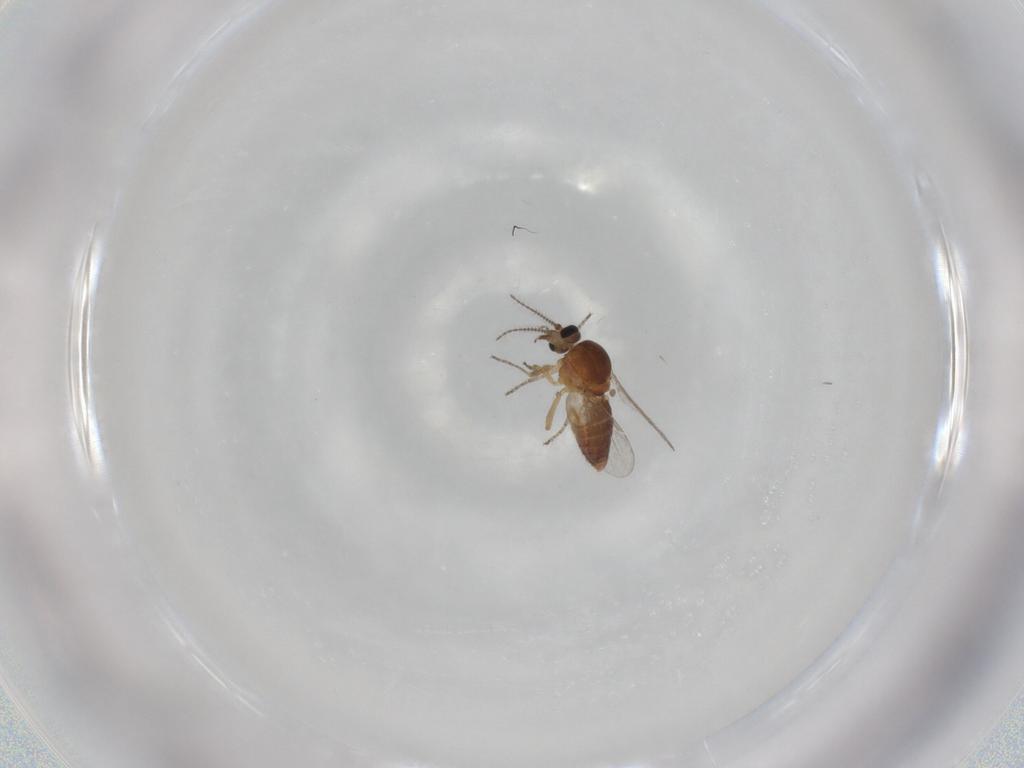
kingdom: Animalia
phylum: Arthropoda
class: Insecta
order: Diptera
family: Ceratopogonidae
